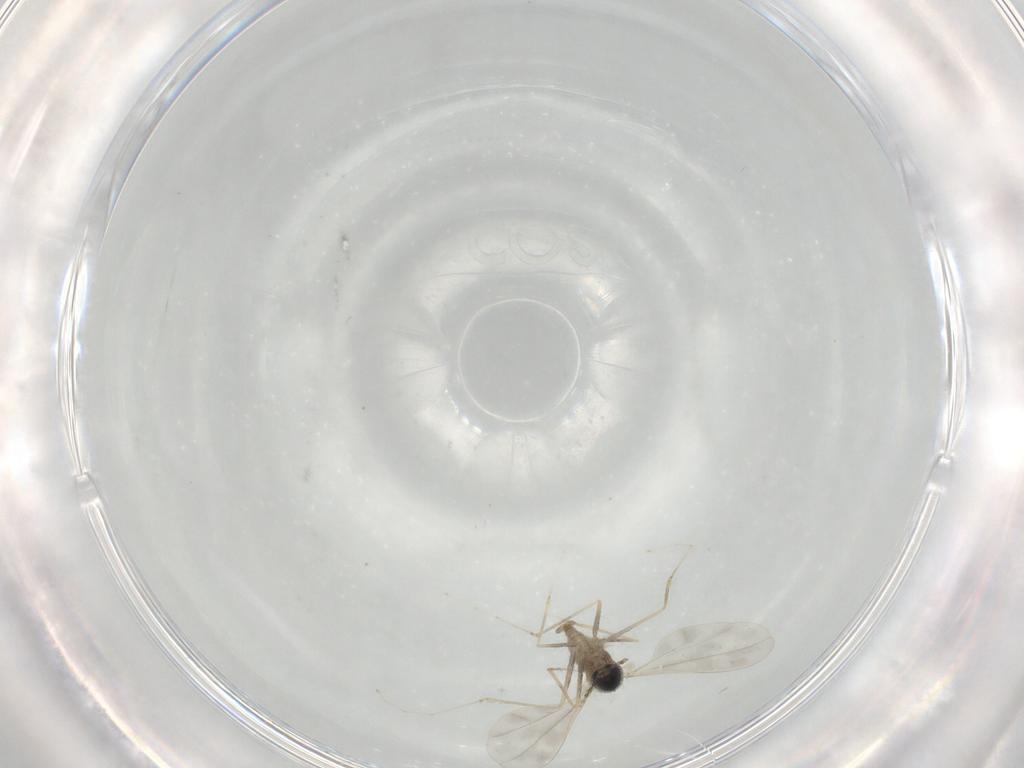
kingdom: Animalia
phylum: Arthropoda
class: Insecta
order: Diptera
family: Cecidomyiidae
